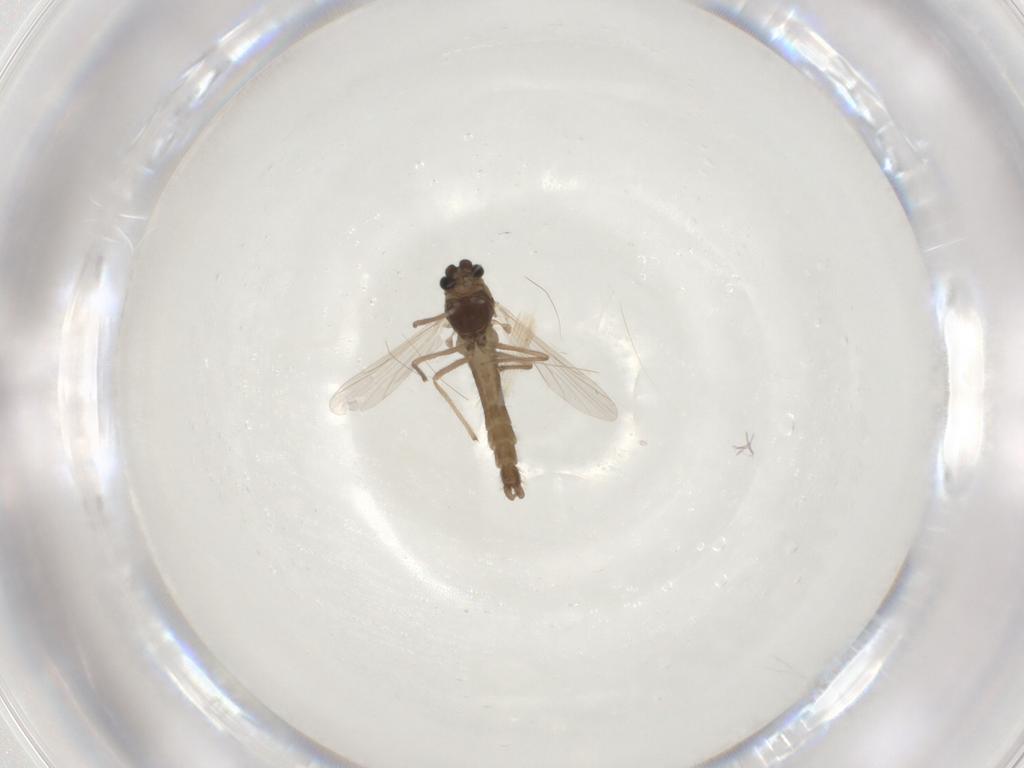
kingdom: Animalia
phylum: Arthropoda
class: Insecta
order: Diptera
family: Chironomidae
